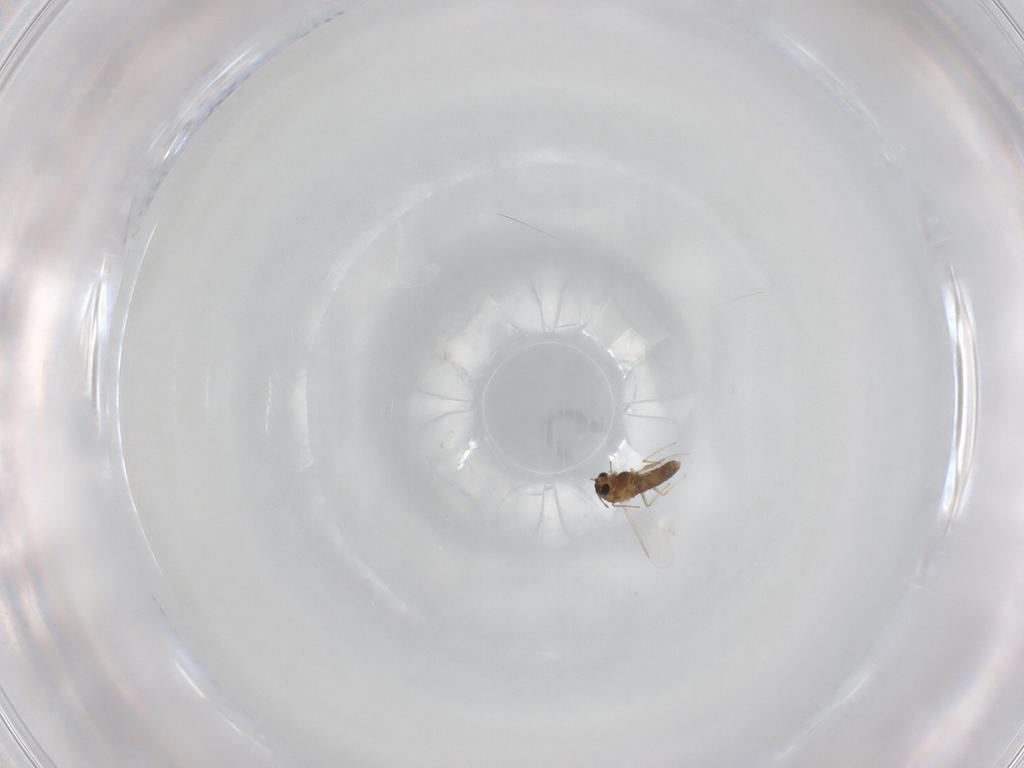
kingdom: Animalia
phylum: Arthropoda
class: Insecta
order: Diptera
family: Chironomidae
